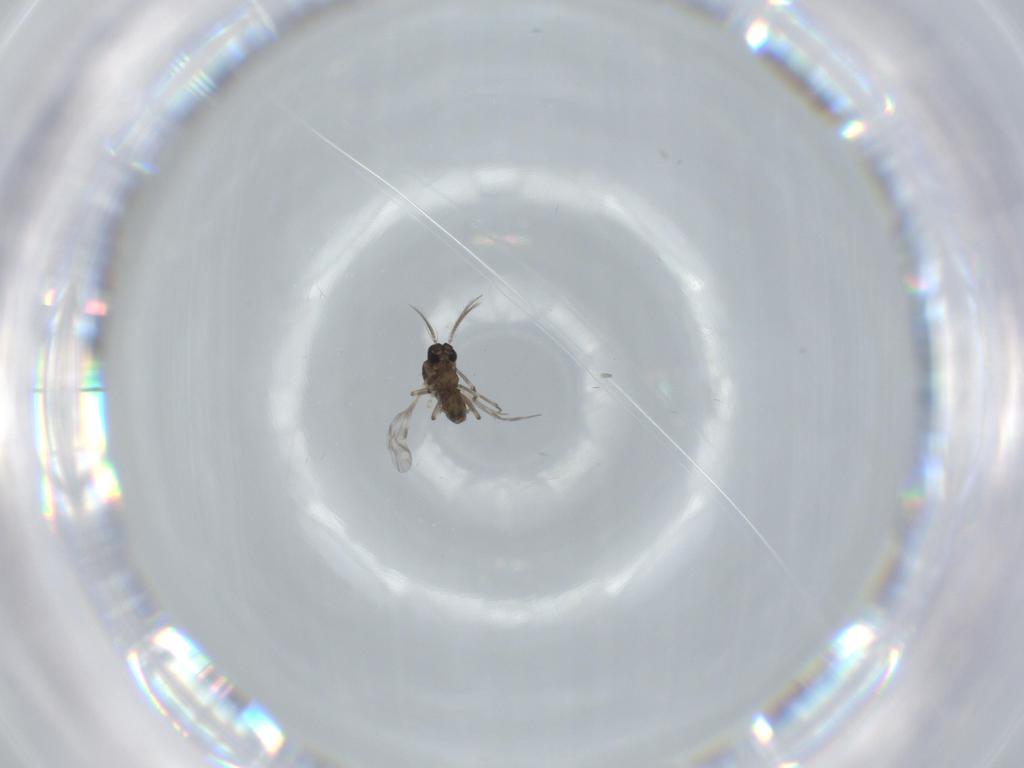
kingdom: Animalia
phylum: Arthropoda
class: Insecta
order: Diptera
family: Ceratopogonidae
